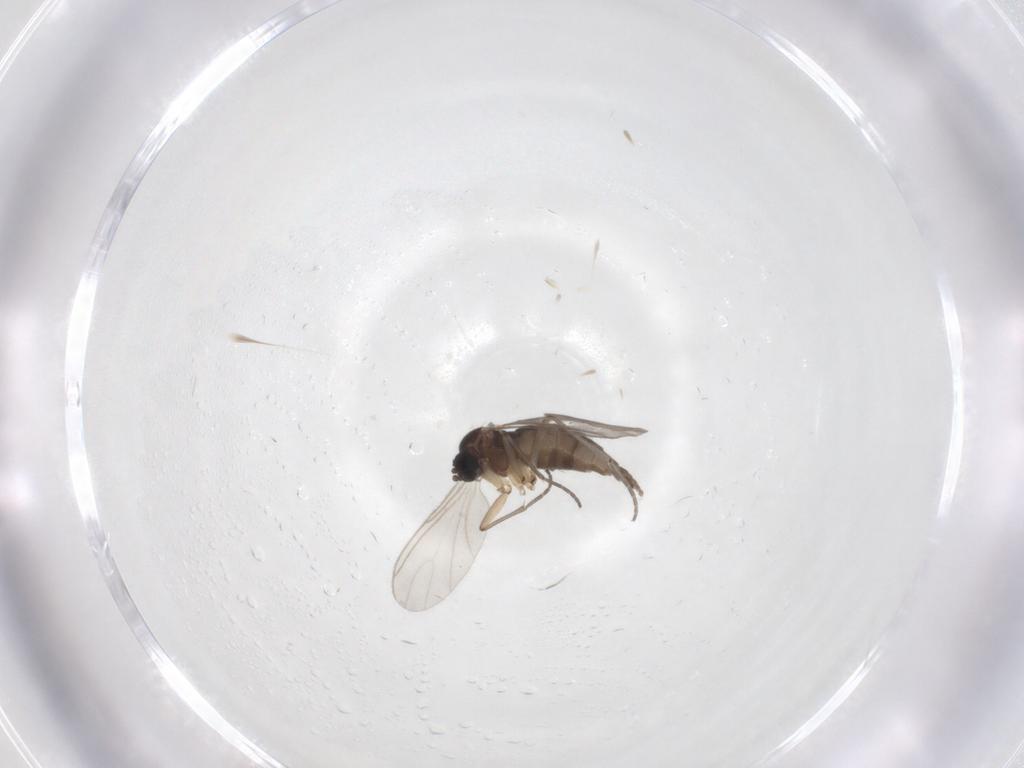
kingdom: Animalia
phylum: Arthropoda
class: Insecta
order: Diptera
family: Sciaridae
